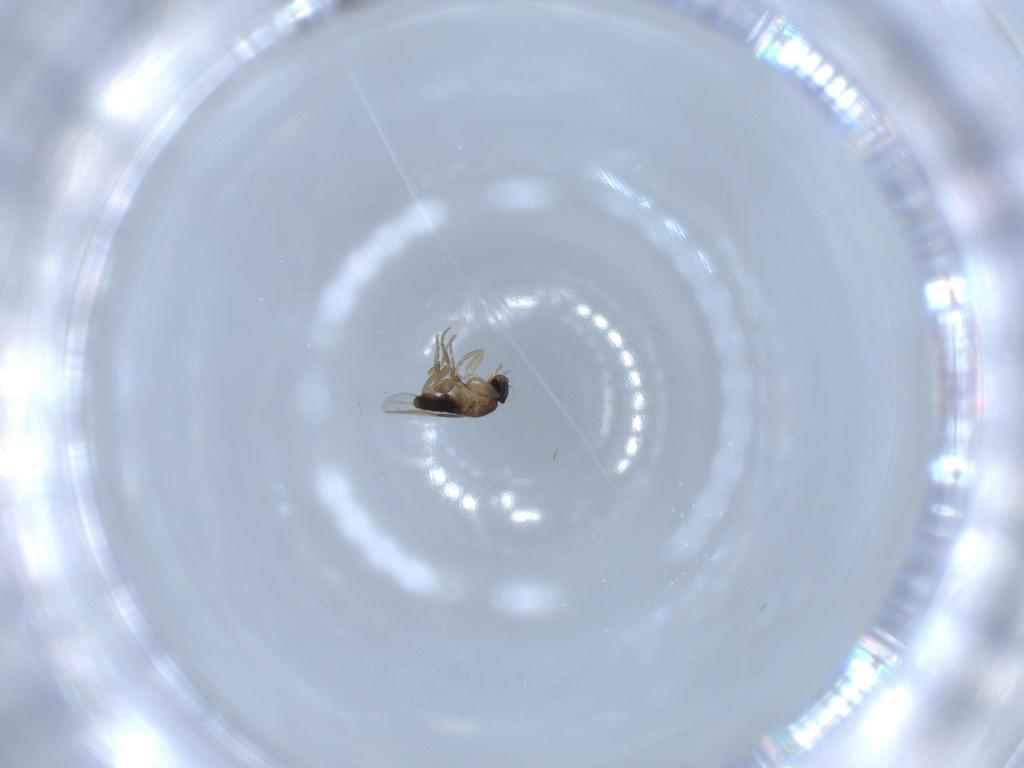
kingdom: Animalia
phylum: Arthropoda
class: Insecta
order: Diptera
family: Phoridae
